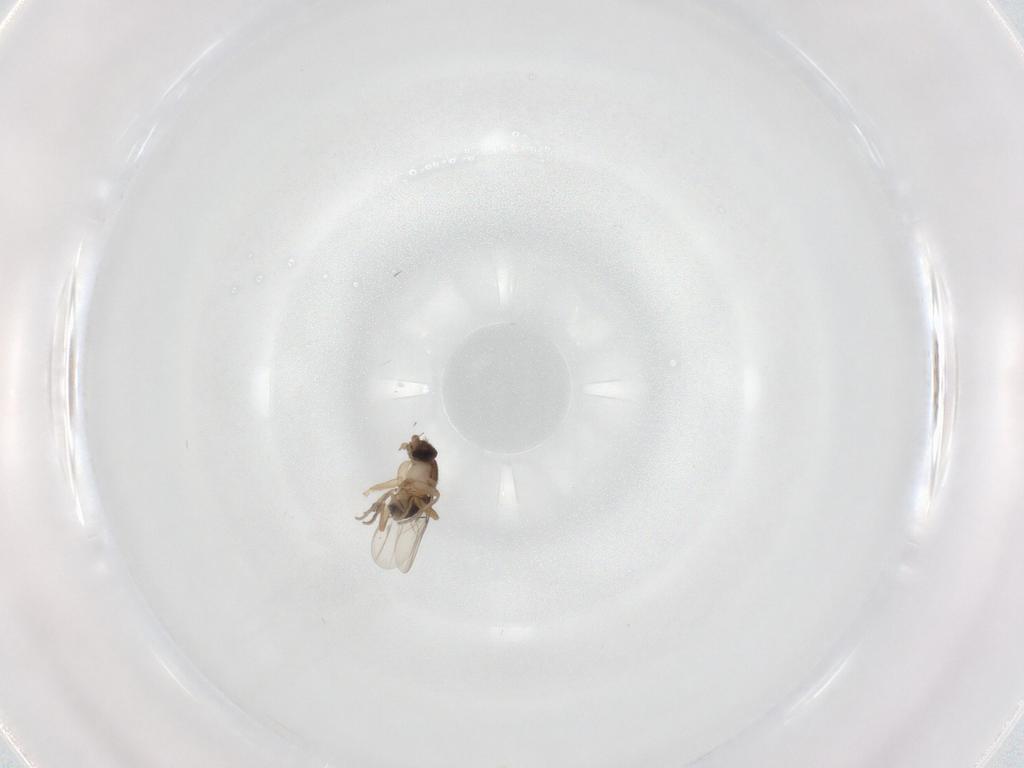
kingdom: Animalia
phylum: Arthropoda
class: Insecta
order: Diptera
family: Phoridae
